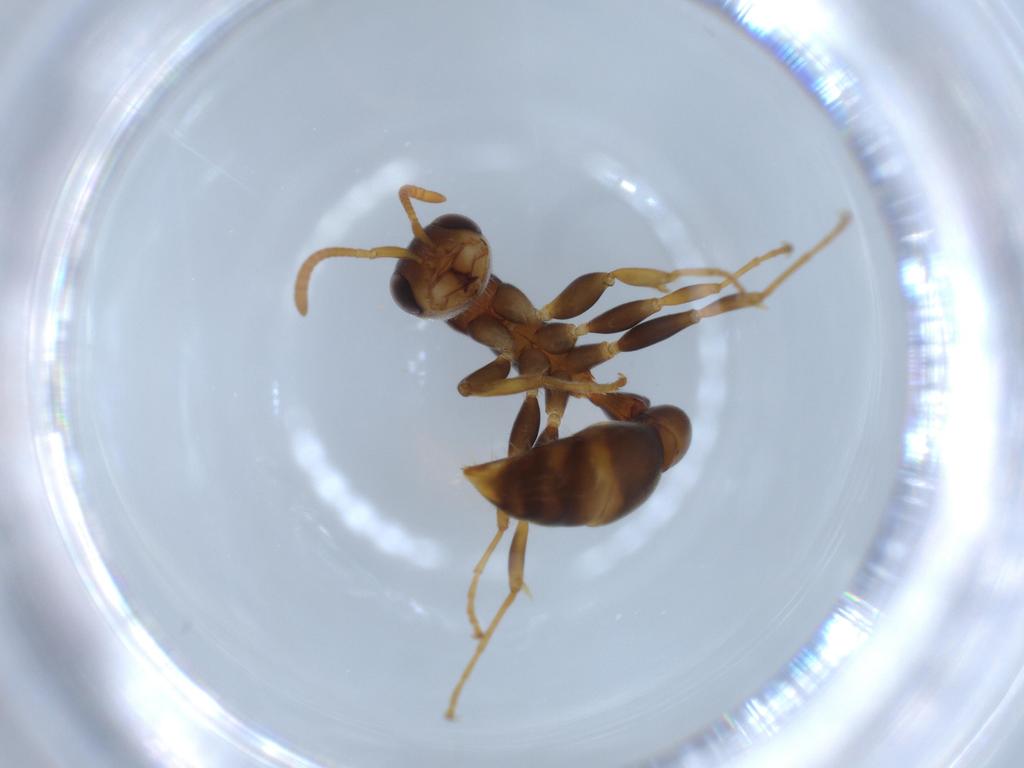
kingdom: Animalia
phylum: Arthropoda
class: Insecta
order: Hymenoptera
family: Formicidae
